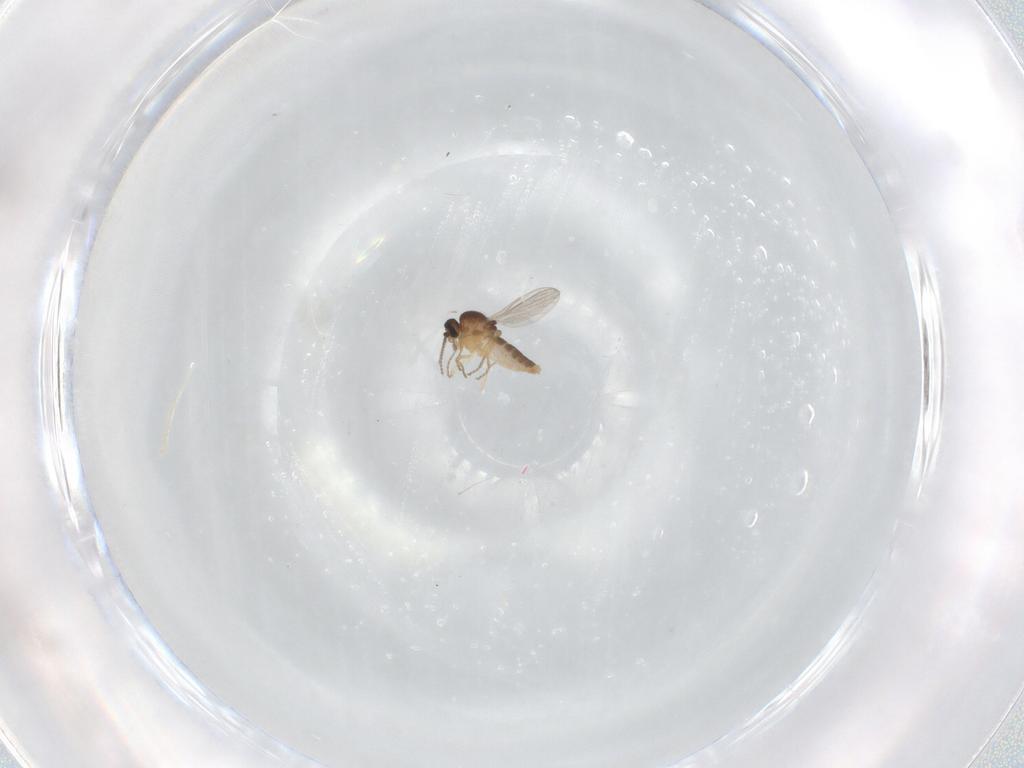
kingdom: Animalia
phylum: Arthropoda
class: Insecta
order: Diptera
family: Ceratopogonidae
